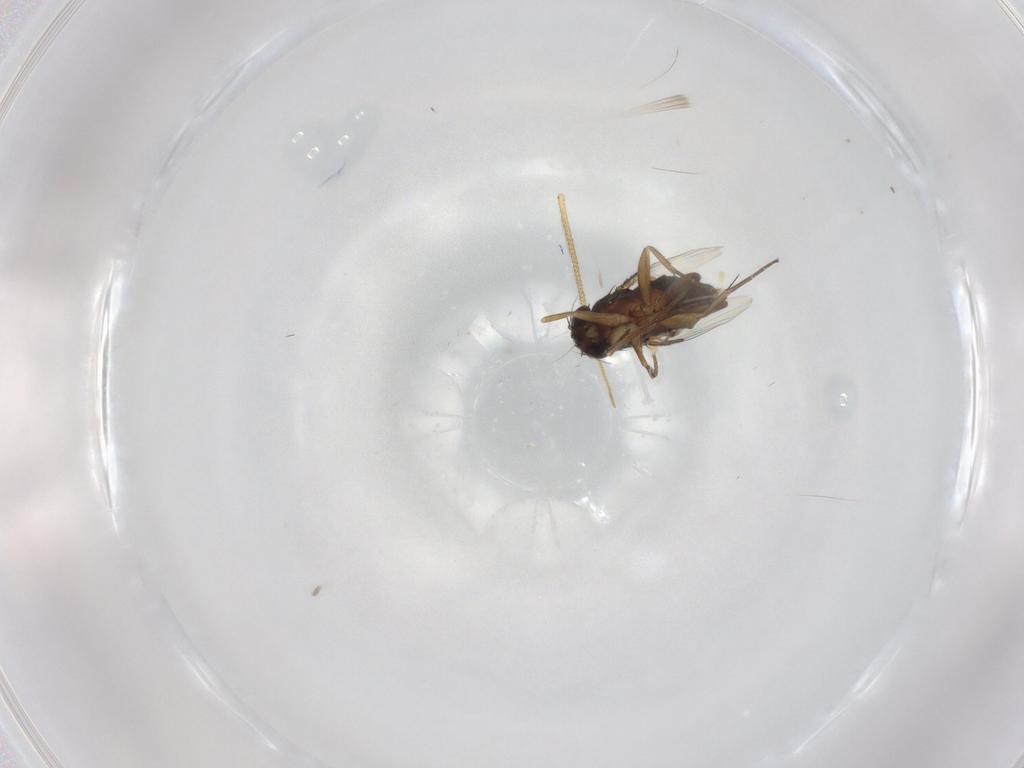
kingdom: Animalia
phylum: Arthropoda
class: Insecta
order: Diptera
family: Phoridae
